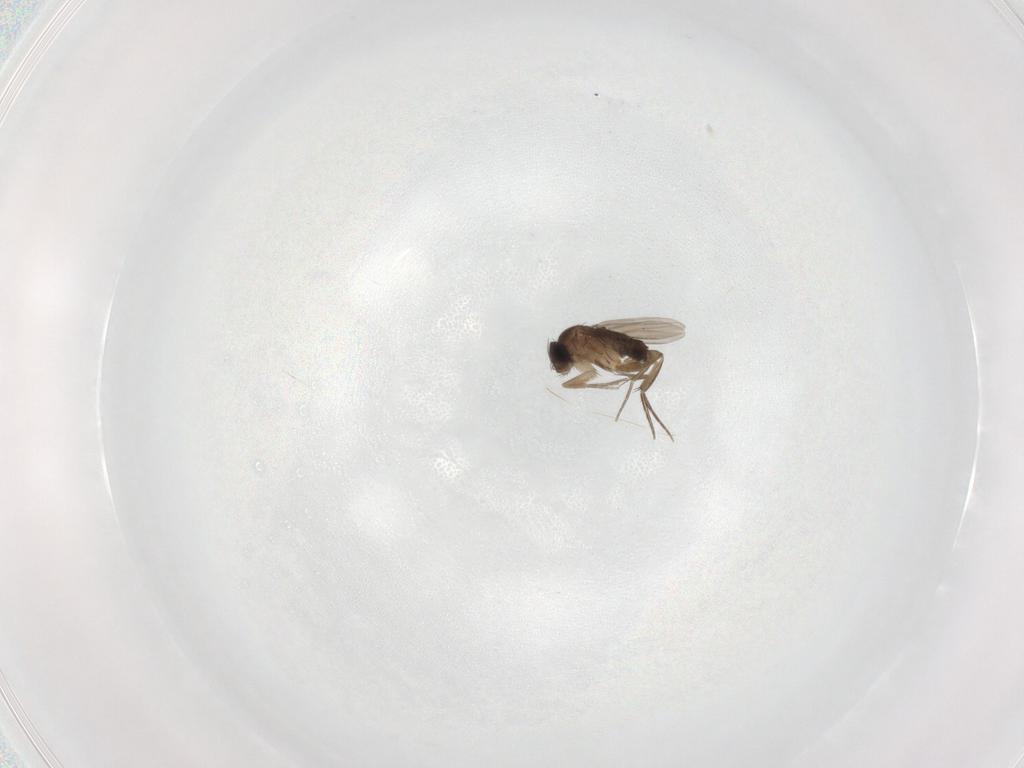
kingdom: Animalia
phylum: Arthropoda
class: Insecta
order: Diptera
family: Phoridae
